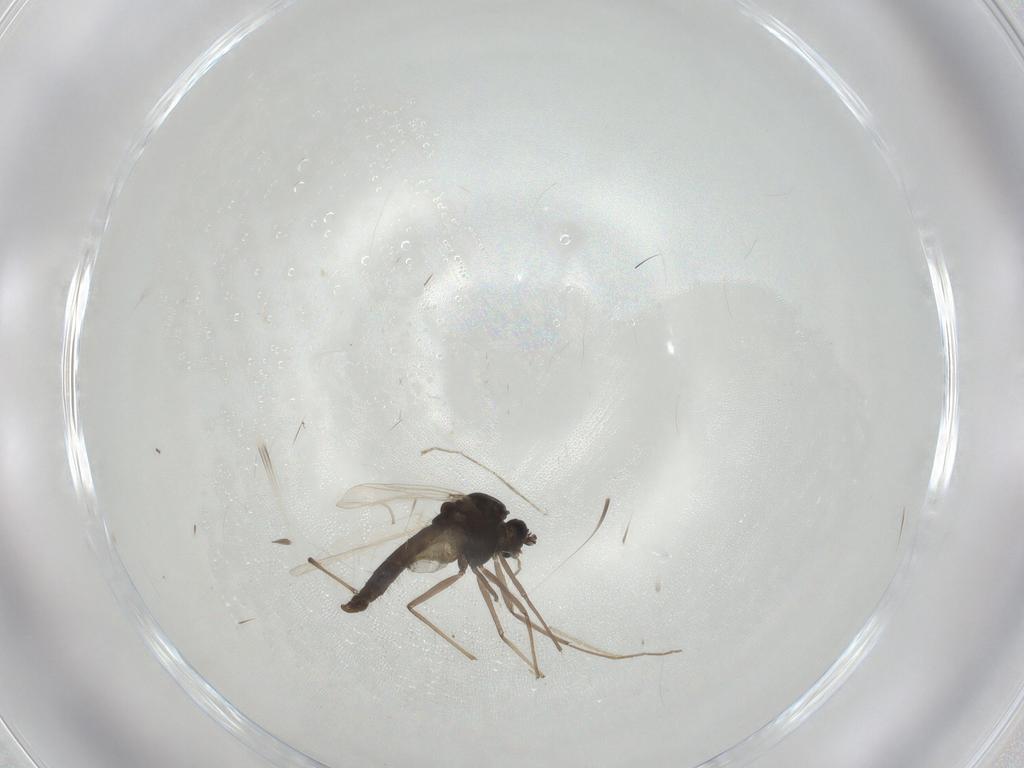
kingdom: Animalia
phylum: Arthropoda
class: Insecta
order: Diptera
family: Chironomidae
